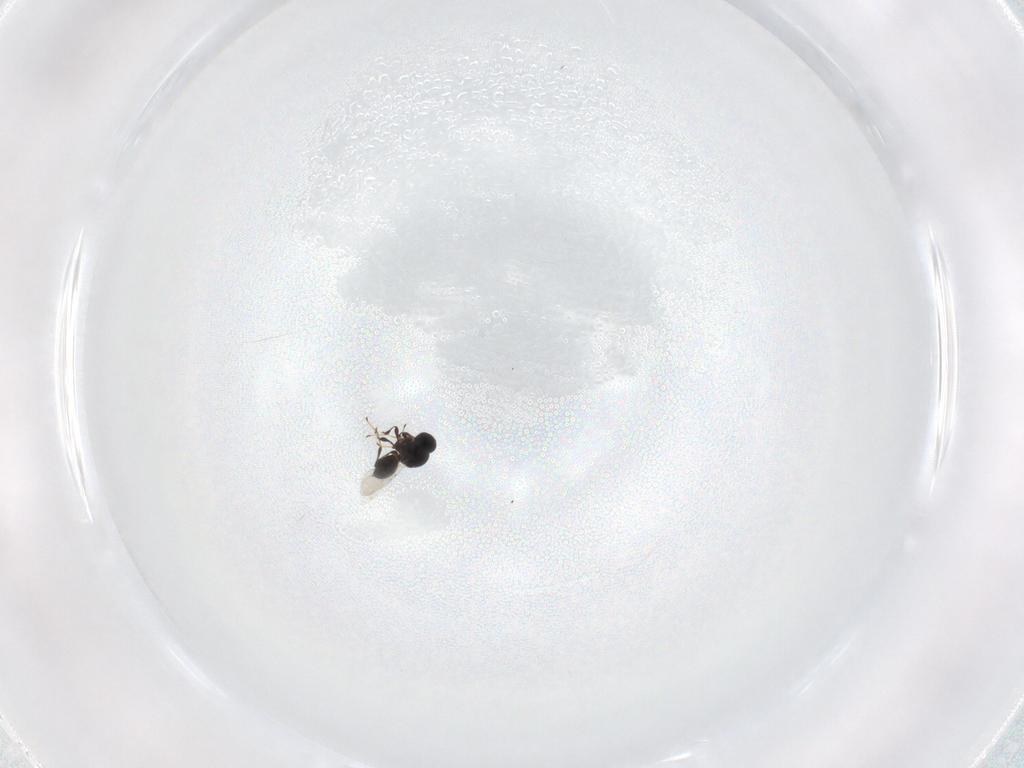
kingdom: Animalia
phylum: Arthropoda
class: Insecta
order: Hymenoptera
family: Platygastridae
